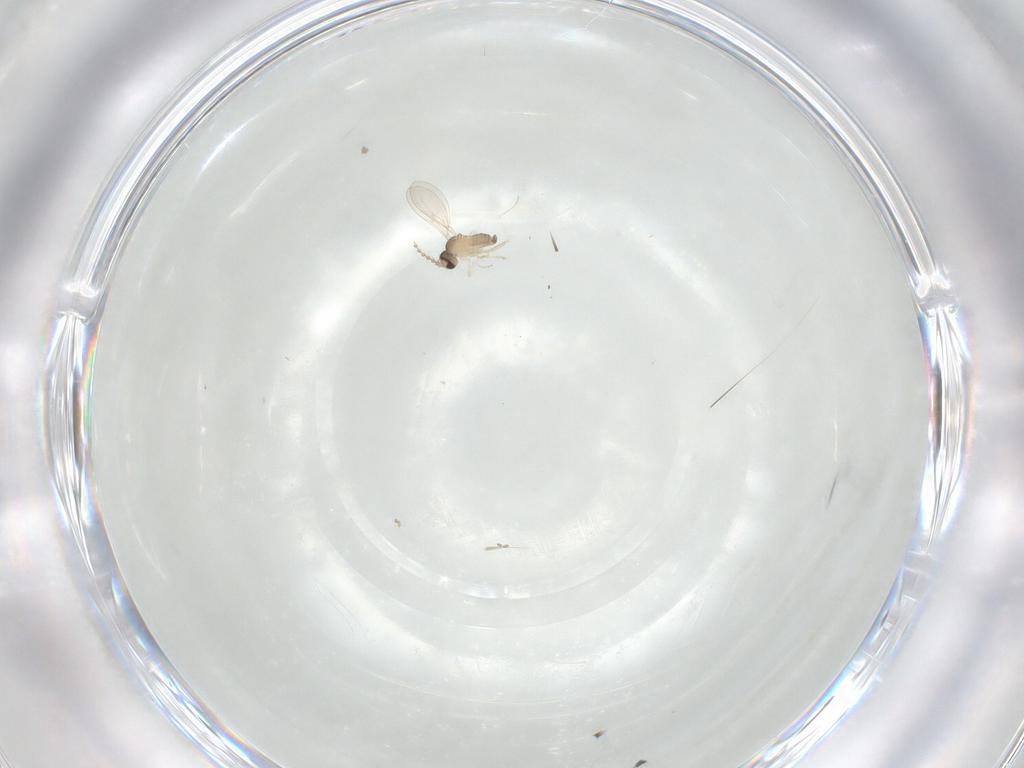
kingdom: Animalia
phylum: Arthropoda
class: Insecta
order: Diptera
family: Cecidomyiidae
